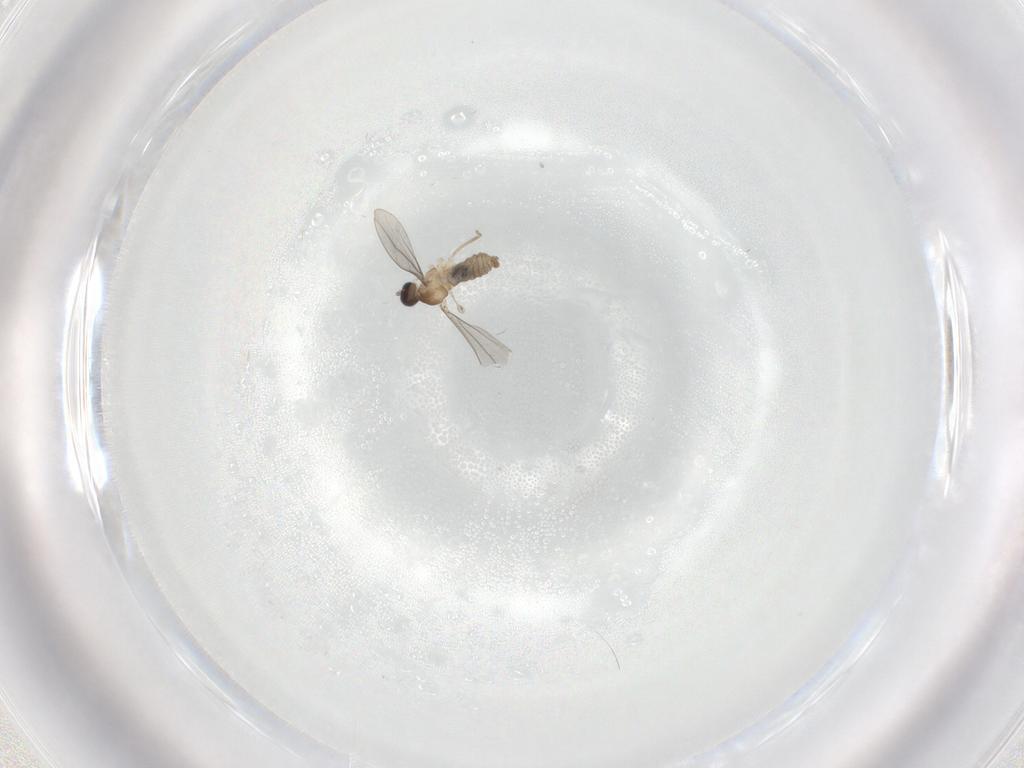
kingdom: Animalia
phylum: Arthropoda
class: Insecta
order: Diptera
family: Cecidomyiidae
